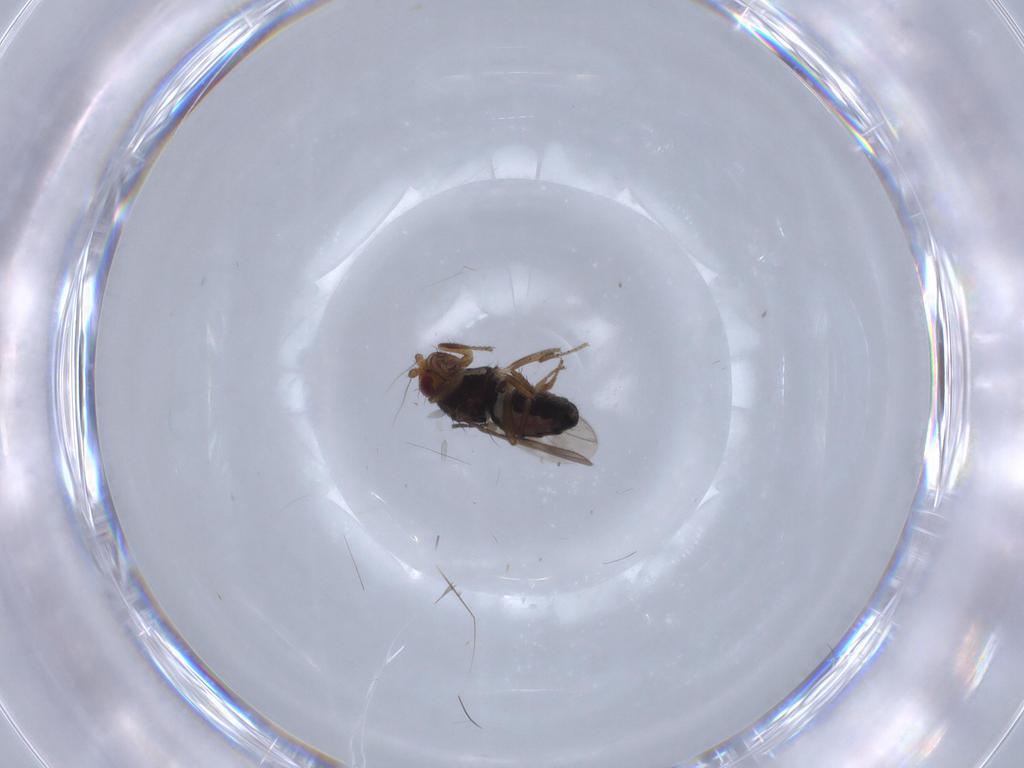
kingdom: Animalia
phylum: Arthropoda
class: Insecta
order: Diptera
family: Sphaeroceridae
